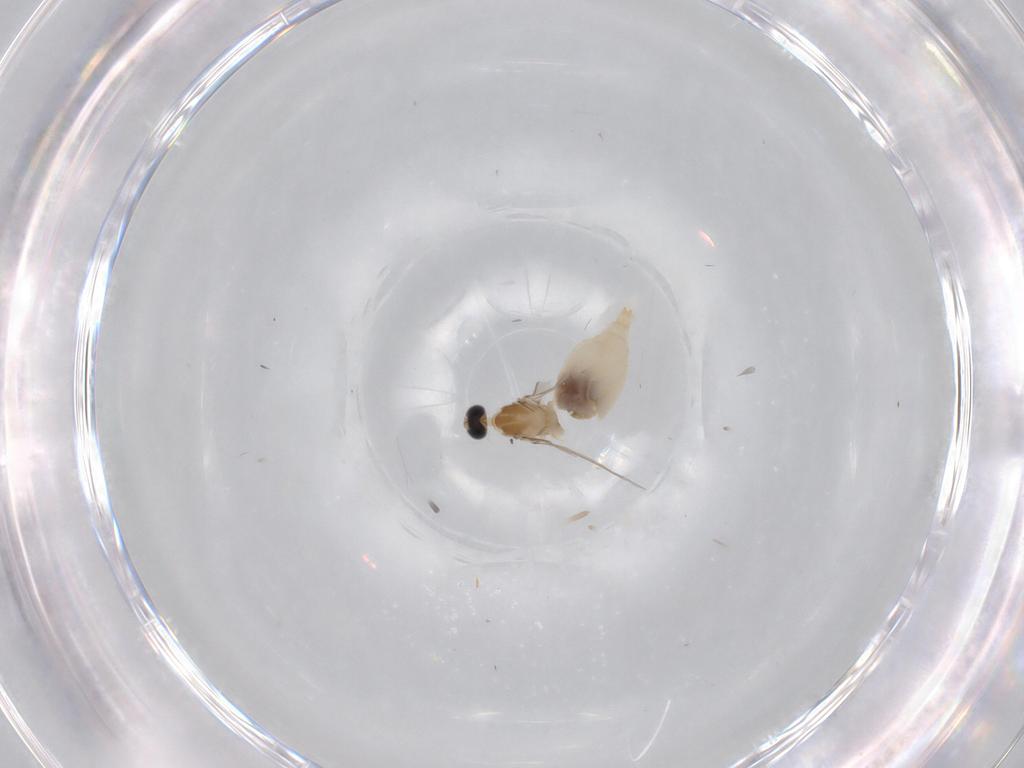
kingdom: Animalia
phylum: Arthropoda
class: Insecta
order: Diptera
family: Cecidomyiidae
